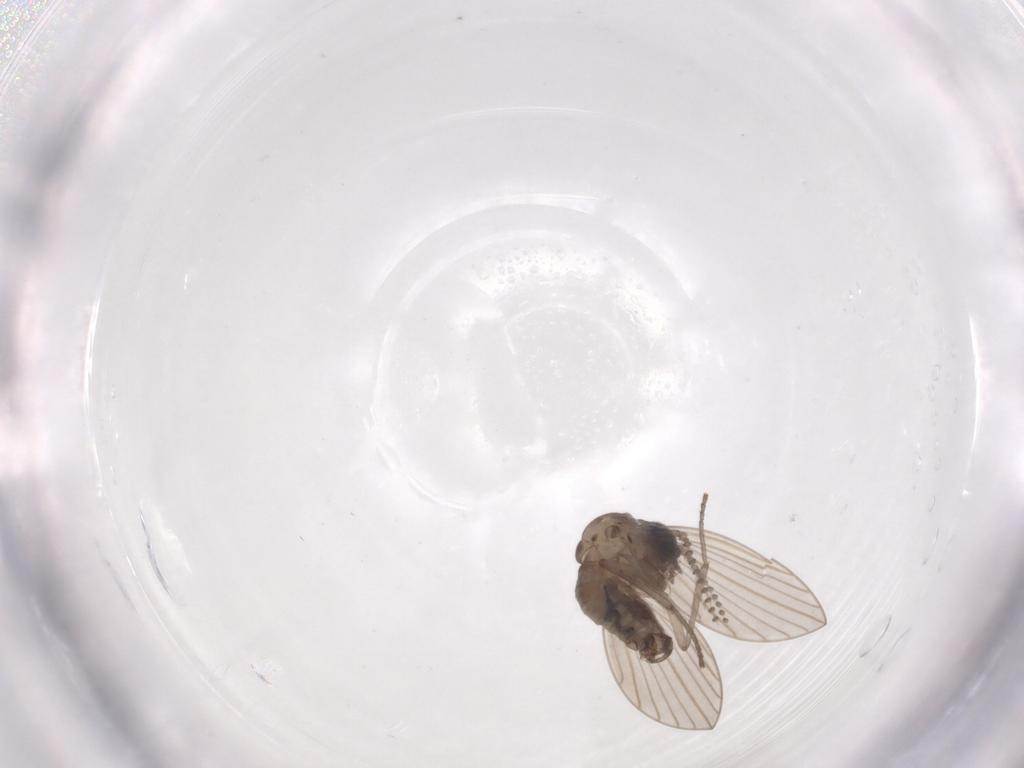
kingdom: Animalia
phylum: Arthropoda
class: Insecta
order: Diptera
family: Psychodidae
